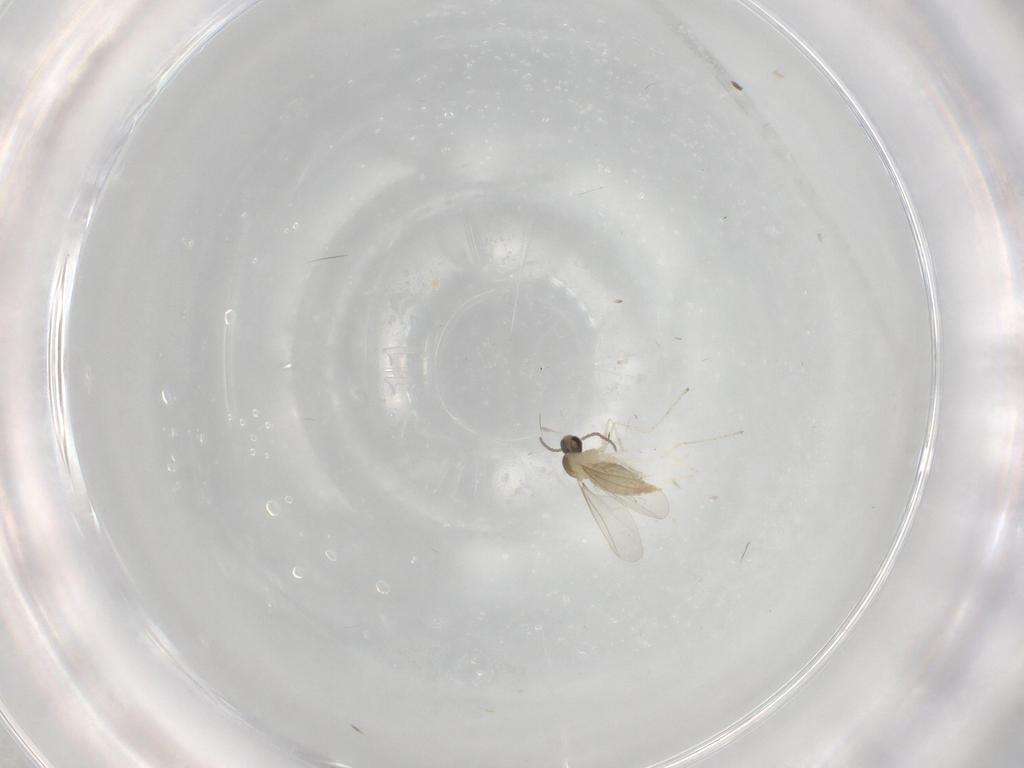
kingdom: Animalia
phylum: Arthropoda
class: Insecta
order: Diptera
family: Cecidomyiidae
